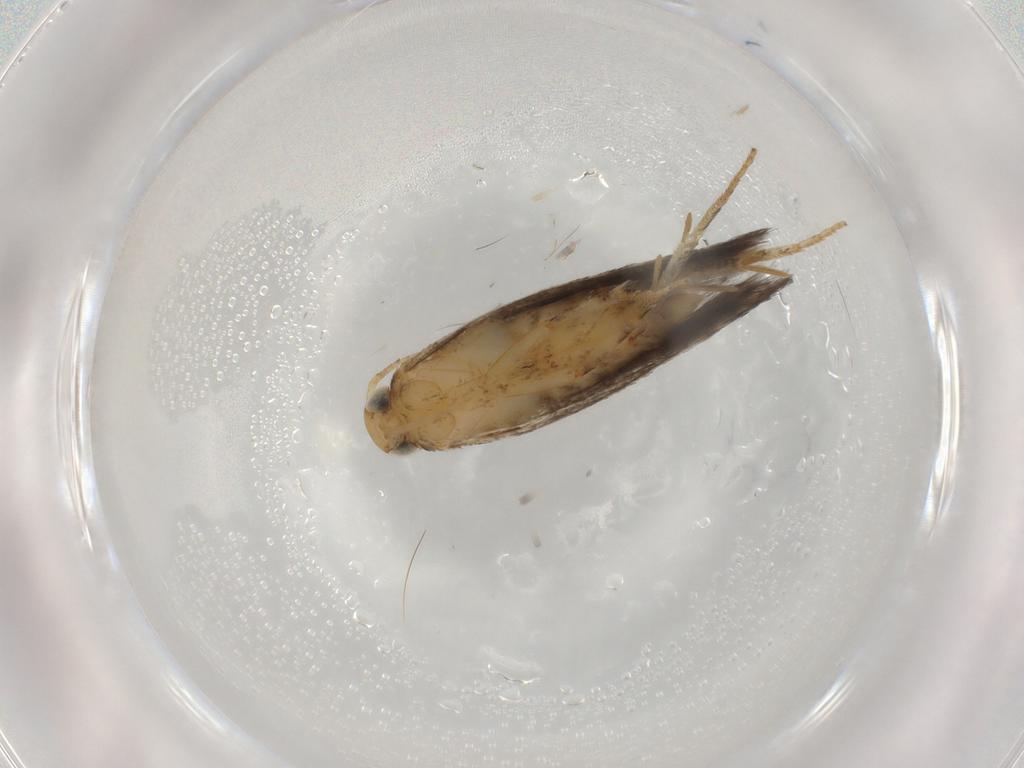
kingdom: Animalia
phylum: Arthropoda
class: Insecta
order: Lepidoptera
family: Gelechiidae
